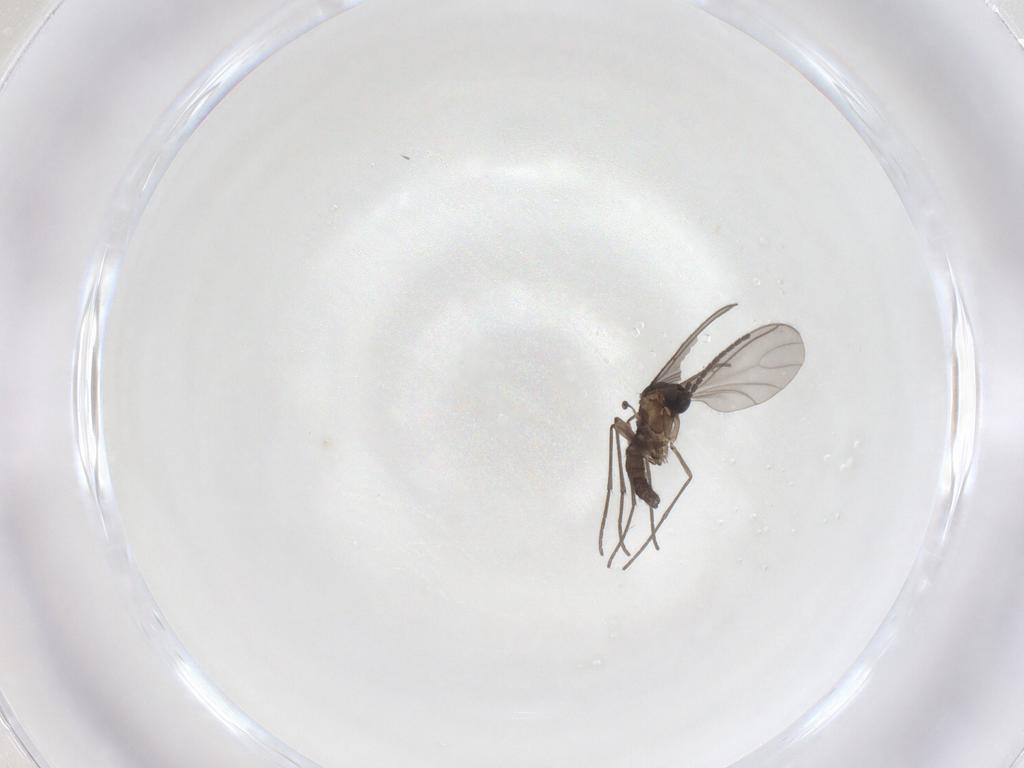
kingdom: Animalia
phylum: Arthropoda
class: Insecta
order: Diptera
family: Sciaridae
